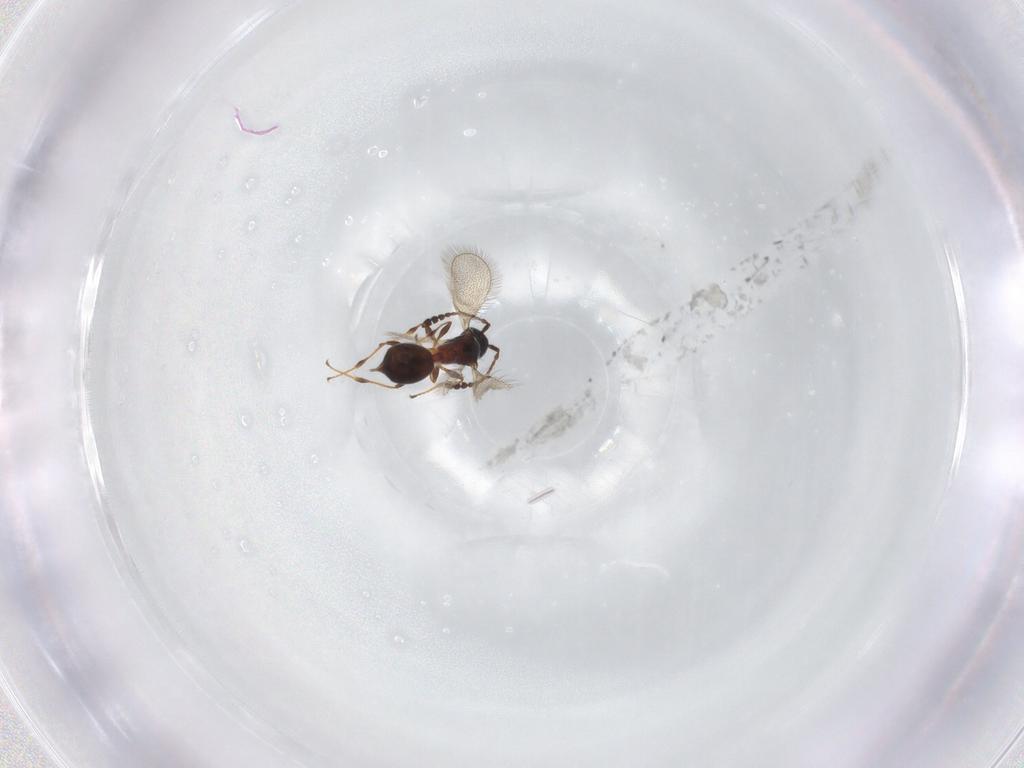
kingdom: Animalia
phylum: Arthropoda
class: Insecta
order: Hymenoptera
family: Diapriidae
